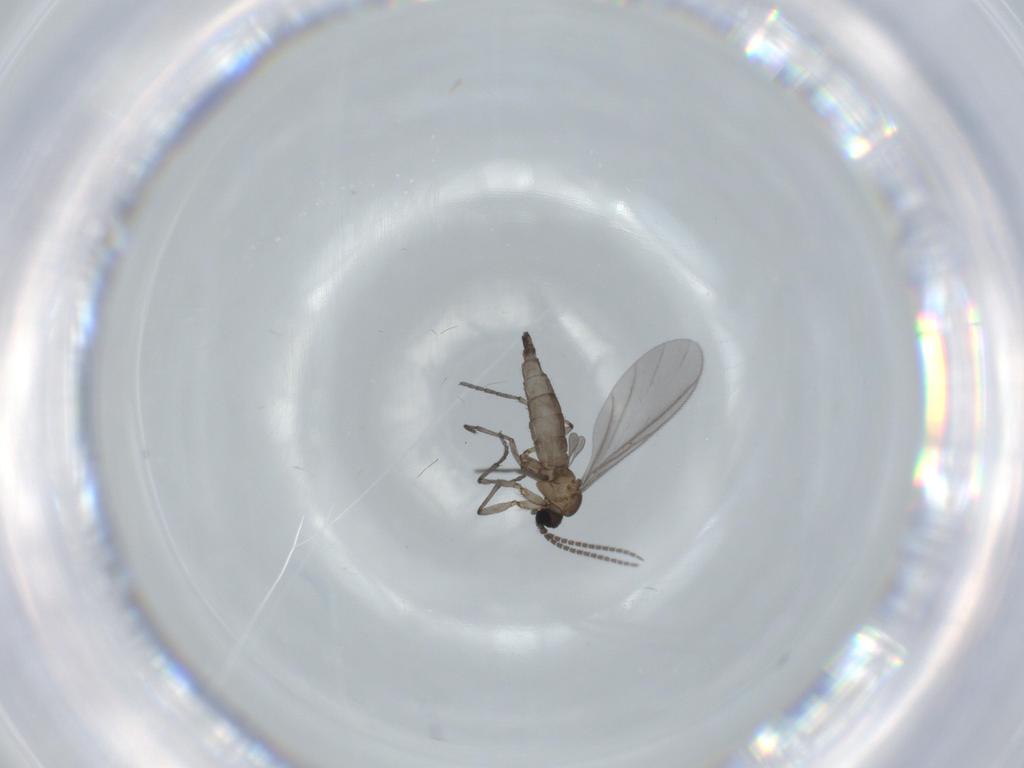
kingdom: Animalia
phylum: Arthropoda
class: Insecta
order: Diptera
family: Sciaridae
